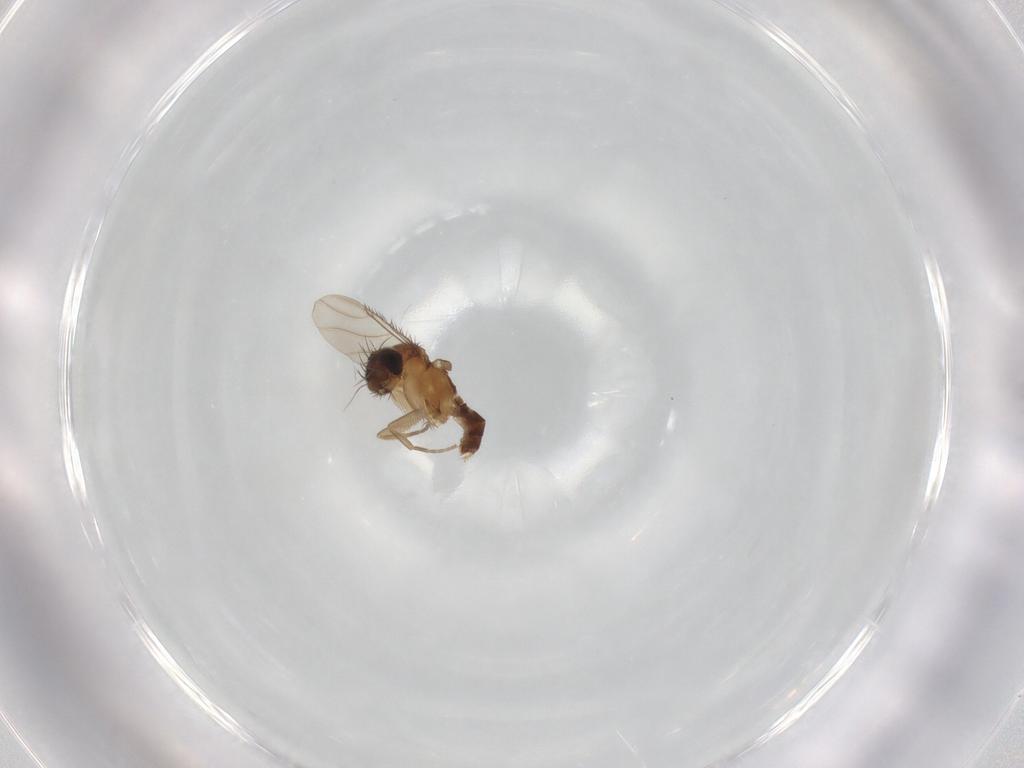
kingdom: Animalia
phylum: Arthropoda
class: Insecta
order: Diptera
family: Phoridae
